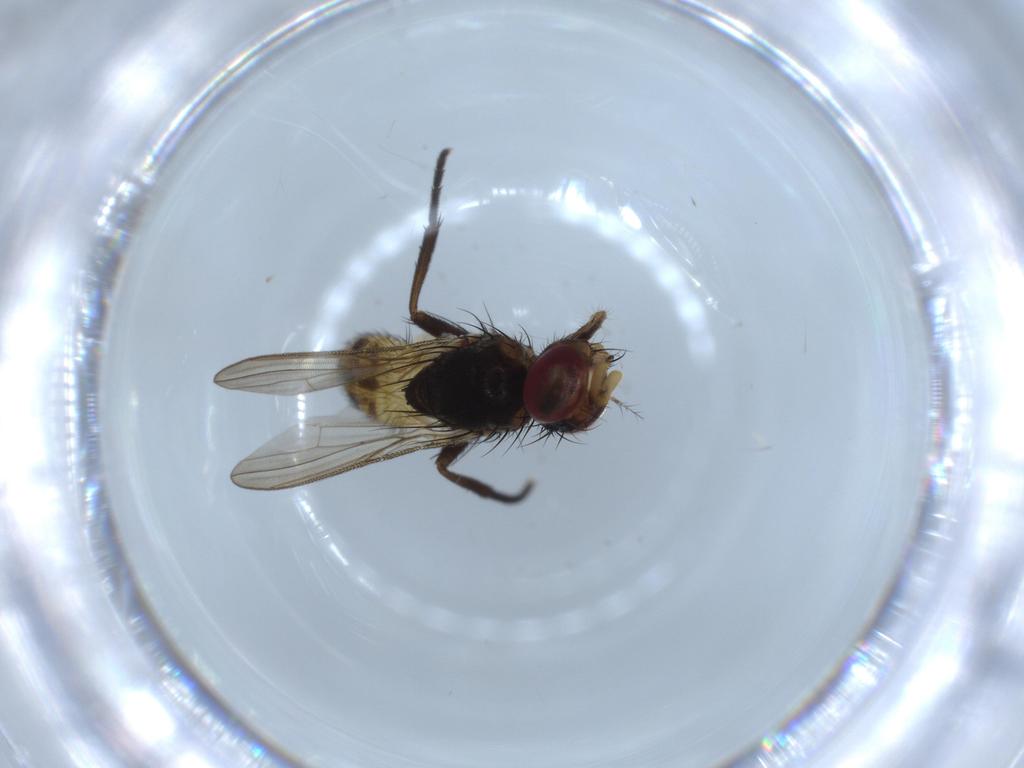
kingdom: Animalia
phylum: Arthropoda
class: Insecta
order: Diptera
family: Anthomyiidae
